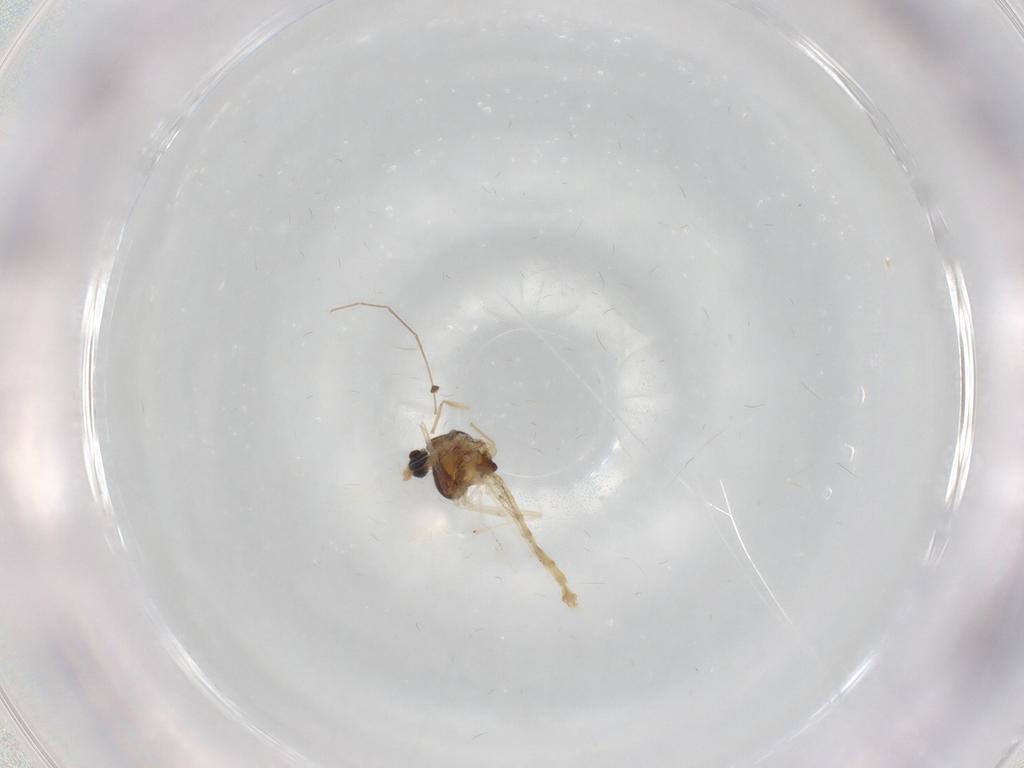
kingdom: Animalia
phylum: Arthropoda
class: Insecta
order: Diptera
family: Chironomidae
